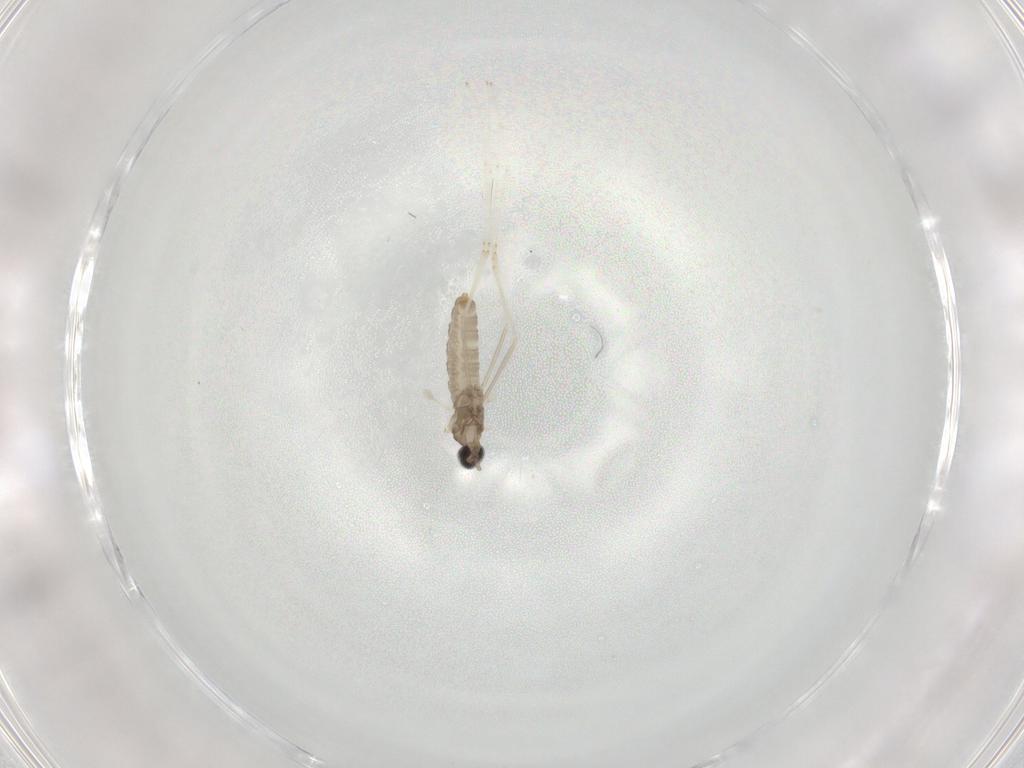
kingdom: Animalia
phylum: Arthropoda
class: Insecta
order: Diptera
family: Cecidomyiidae
